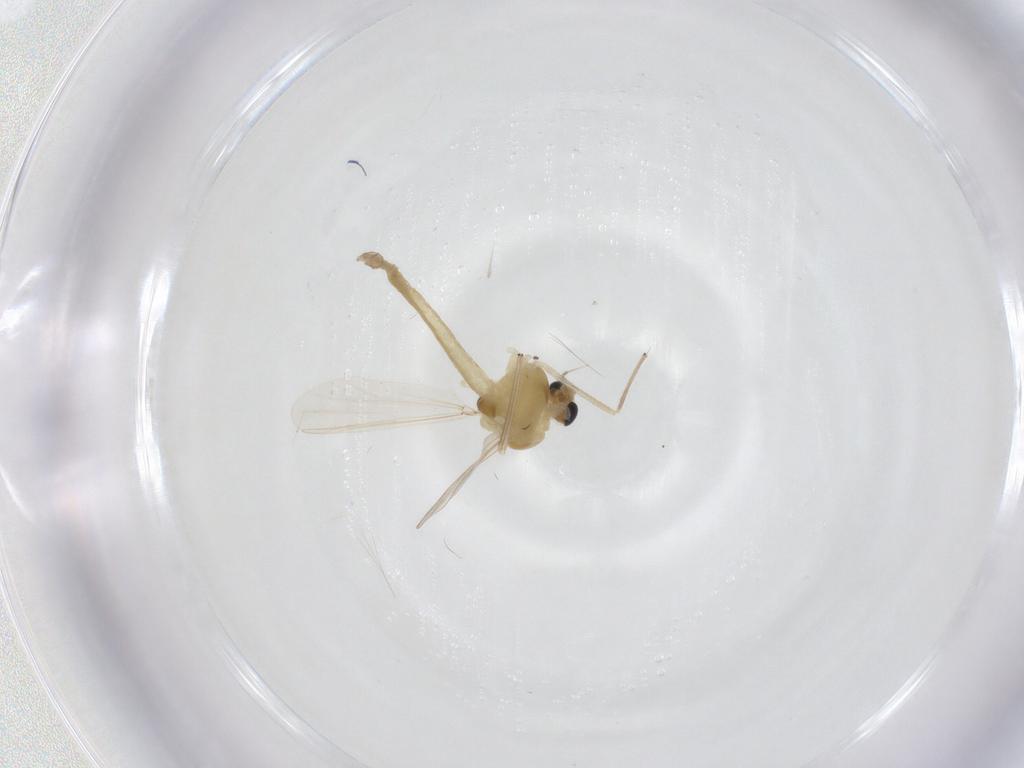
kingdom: Animalia
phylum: Arthropoda
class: Insecta
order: Diptera
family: Chironomidae
